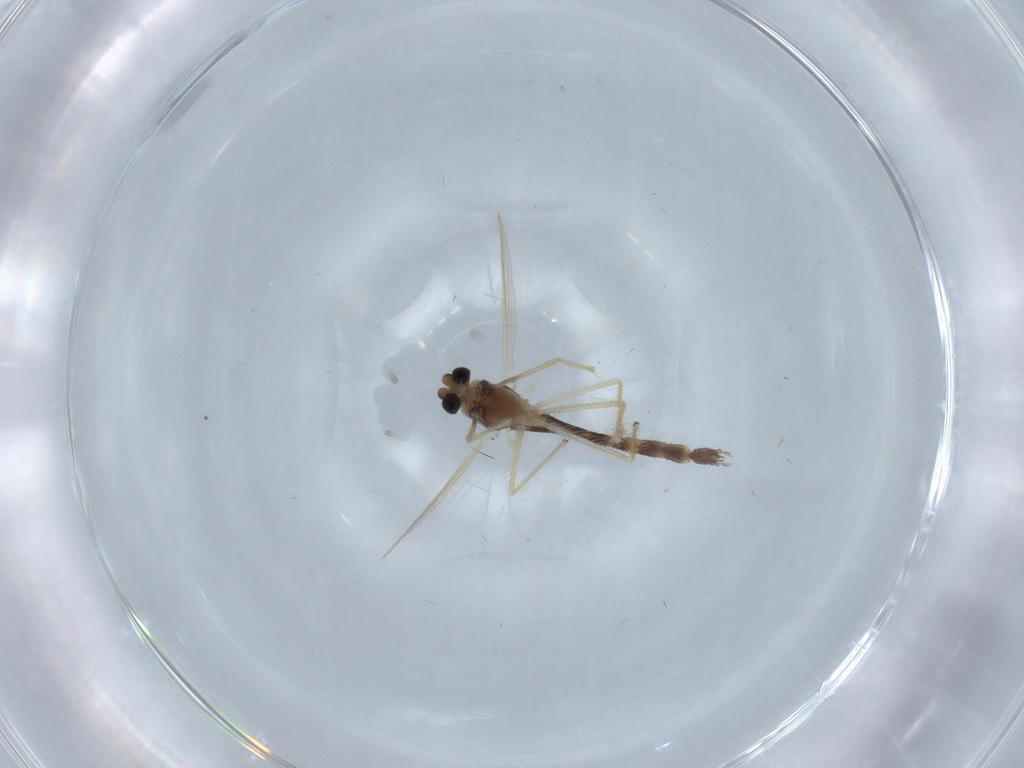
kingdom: Animalia
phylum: Arthropoda
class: Insecta
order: Diptera
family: Chironomidae
